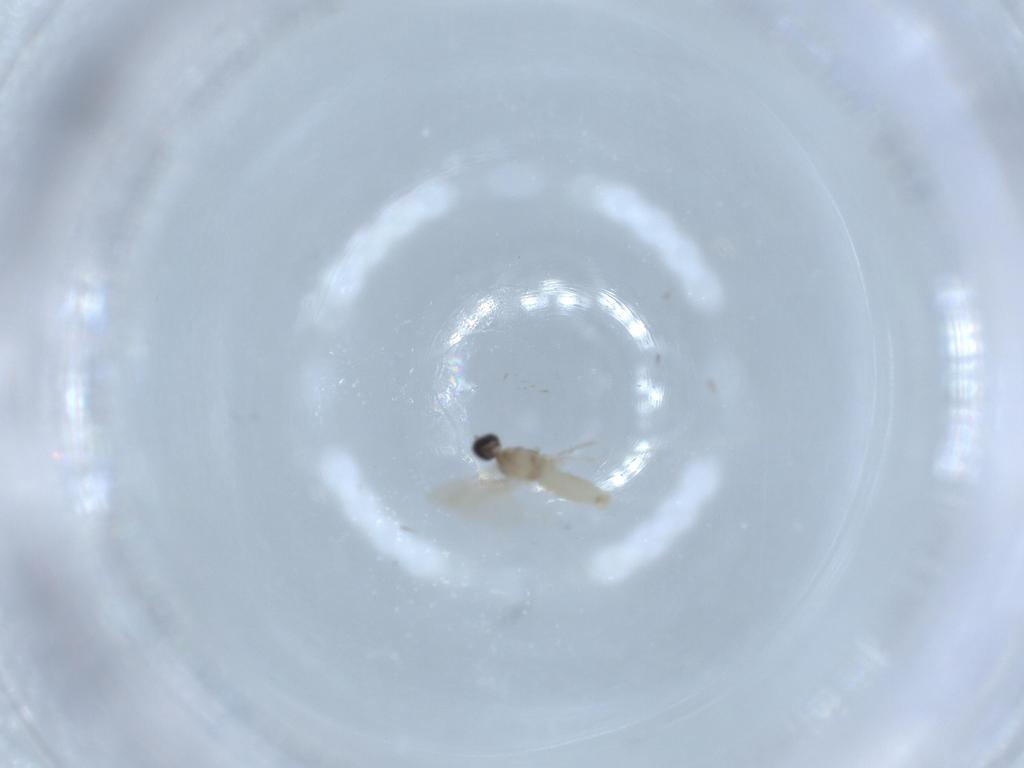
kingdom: Animalia
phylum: Arthropoda
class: Insecta
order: Diptera
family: Cecidomyiidae
